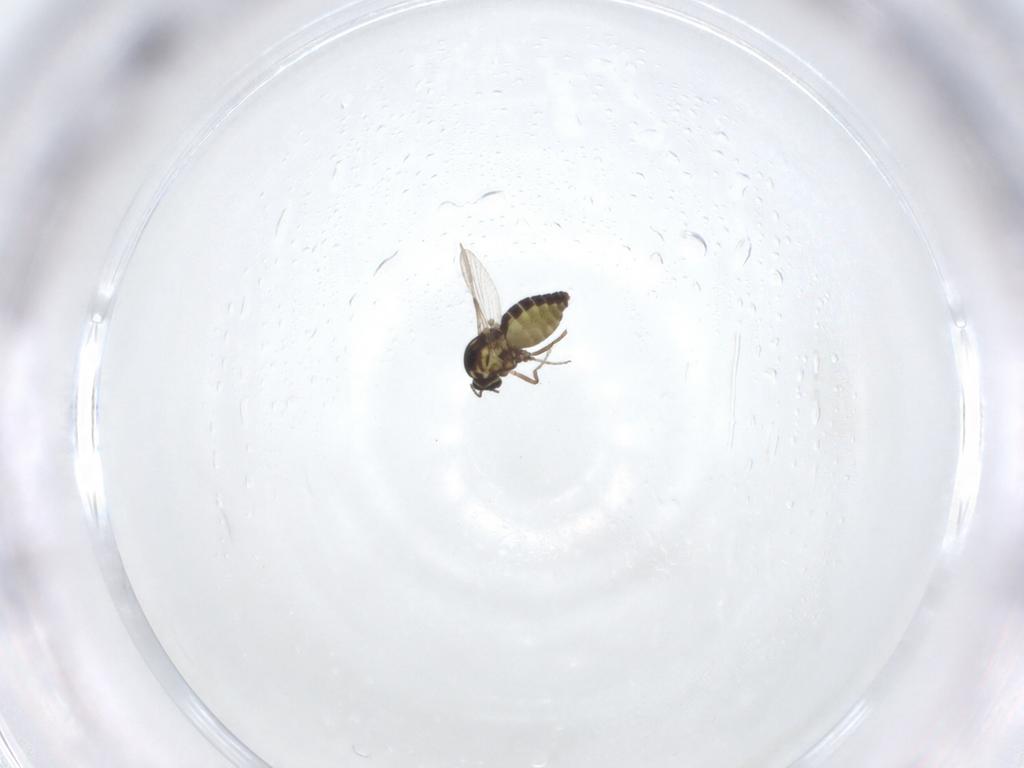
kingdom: Animalia
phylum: Arthropoda
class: Insecta
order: Diptera
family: Ceratopogonidae
